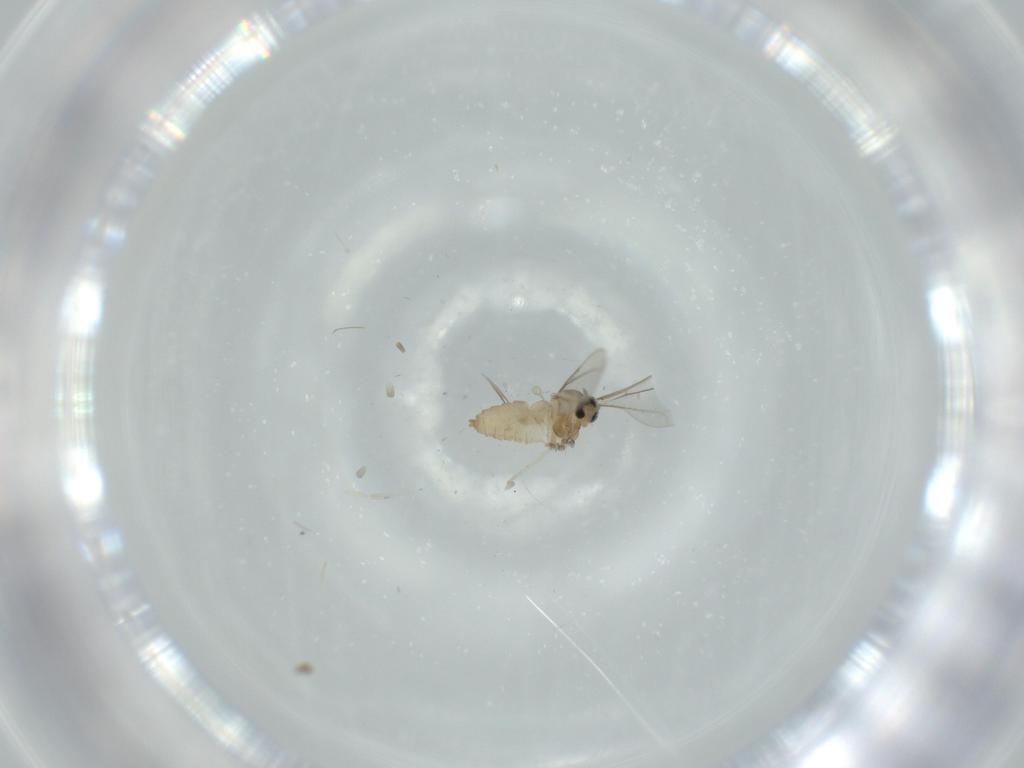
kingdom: Animalia
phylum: Arthropoda
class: Insecta
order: Diptera
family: Cecidomyiidae
